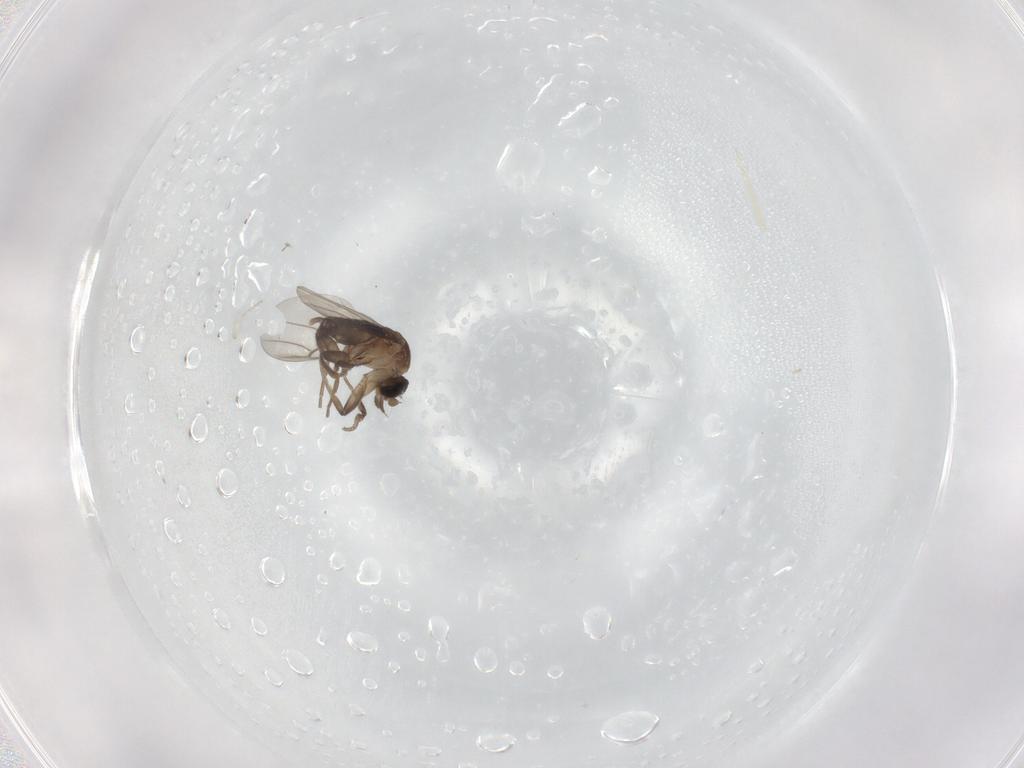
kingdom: Animalia
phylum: Arthropoda
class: Insecta
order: Diptera
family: Phoridae
